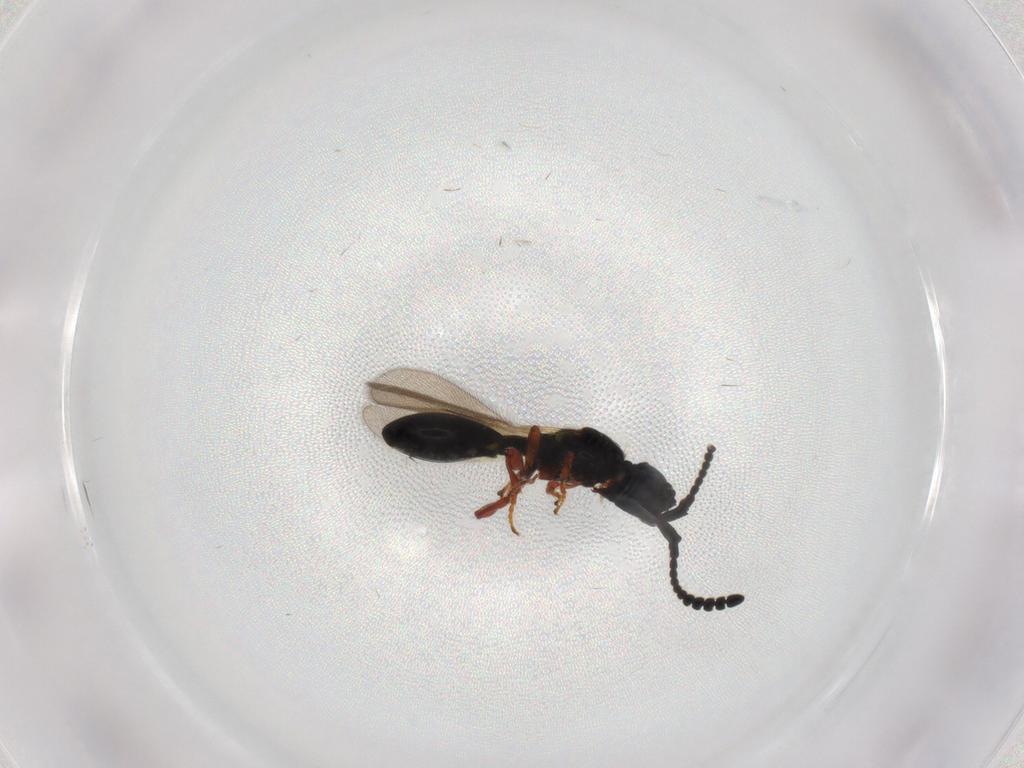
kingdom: Animalia
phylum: Arthropoda
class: Insecta
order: Hymenoptera
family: Diapriidae
